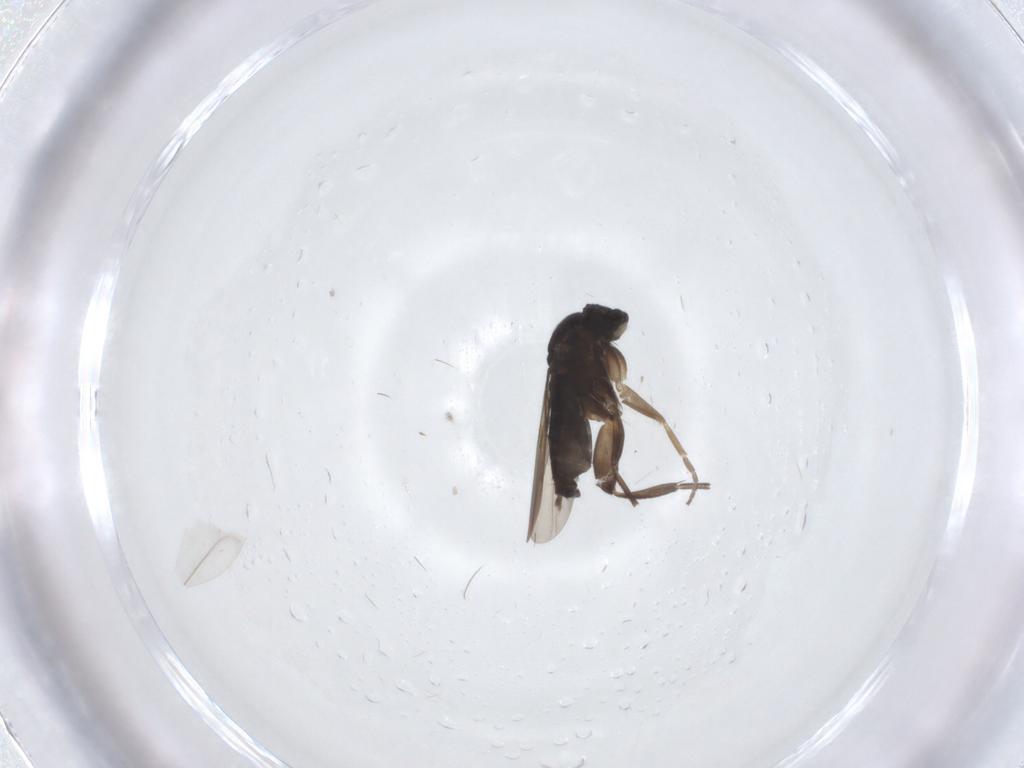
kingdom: Animalia
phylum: Arthropoda
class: Insecta
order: Diptera
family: Phoridae
